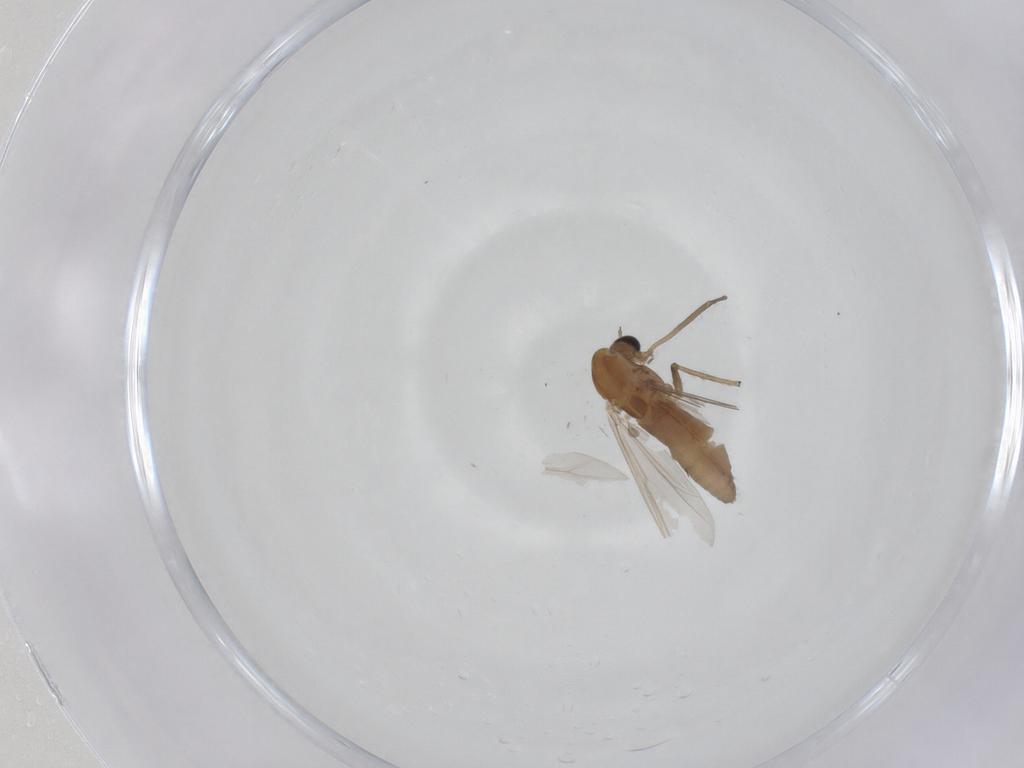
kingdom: Animalia
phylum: Arthropoda
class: Insecta
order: Diptera
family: Chironomidae
